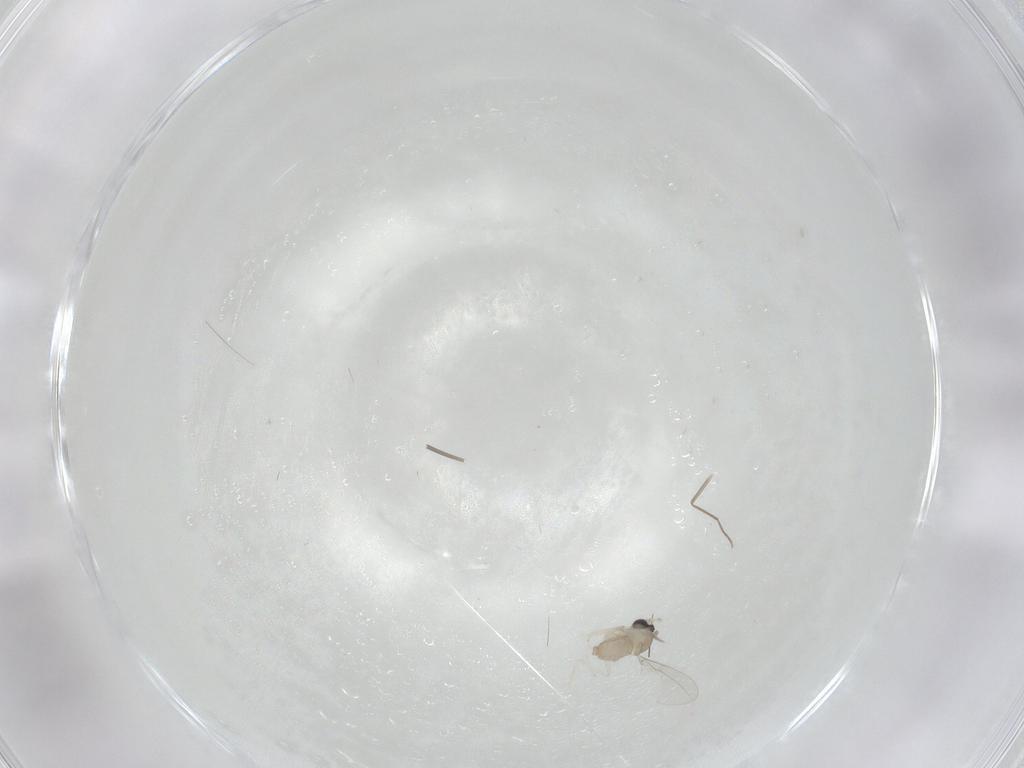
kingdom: Animalia
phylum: Arthropoda
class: Insecta
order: Diptera
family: Cecidomyiidae
